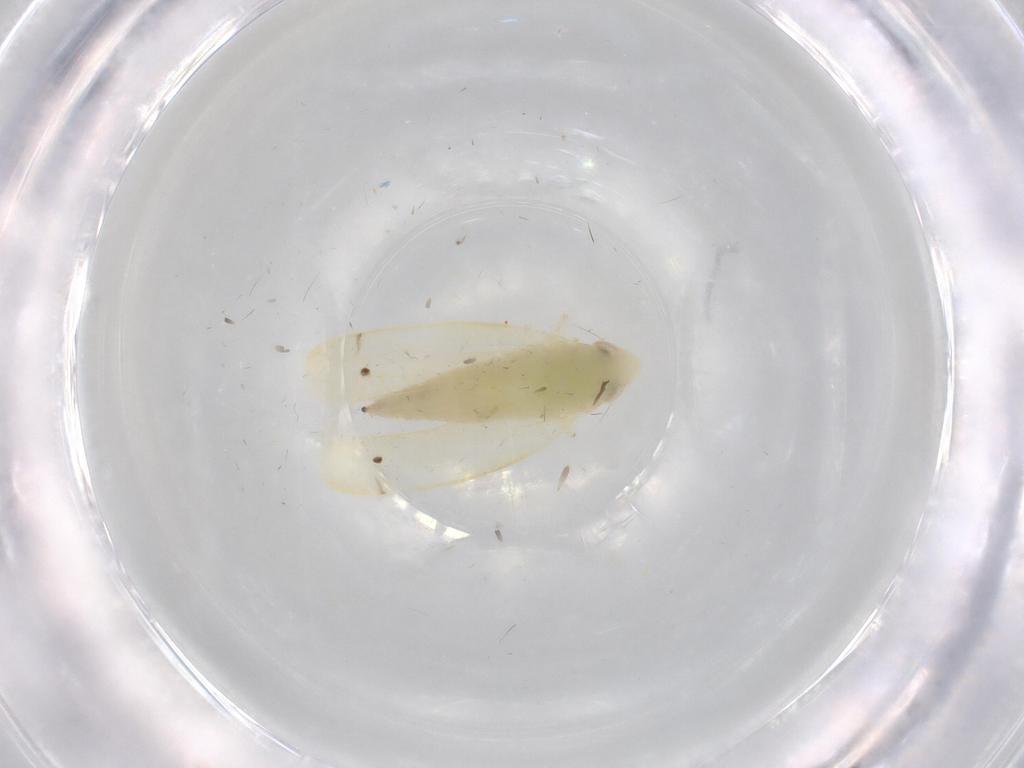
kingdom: Animalia
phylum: Arthropoda
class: Insecta
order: Hemiptera
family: Cicadellidae
